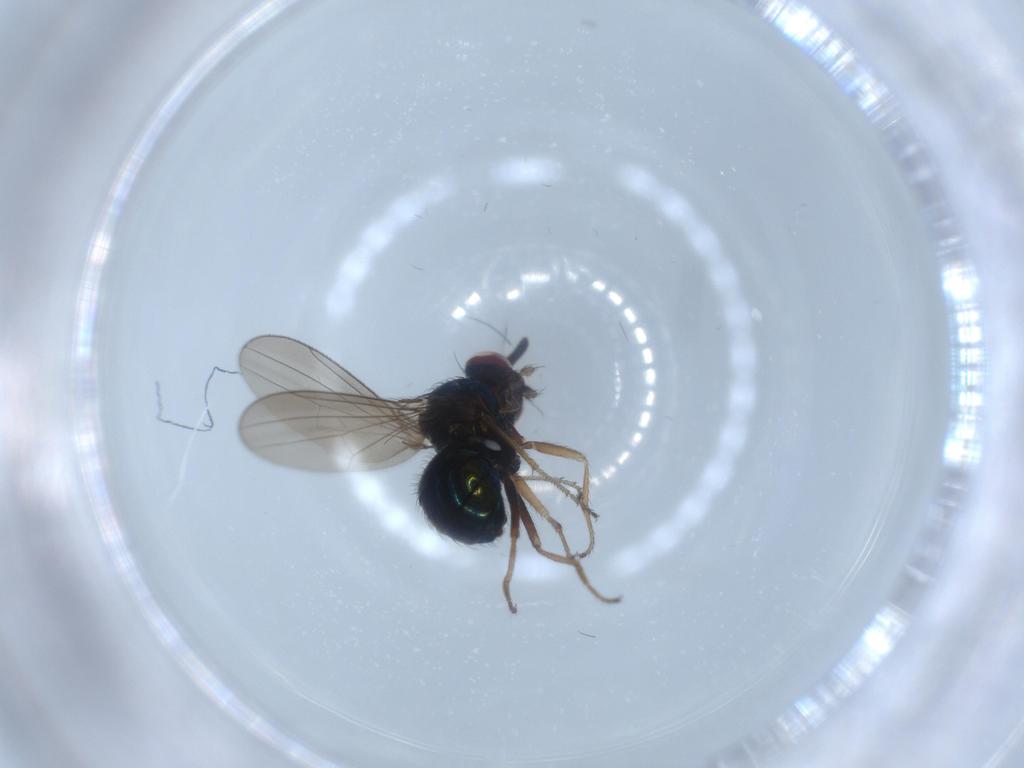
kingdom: Animalia
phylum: Arthropoda
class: Insecta
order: Diptera
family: Ephydridae
